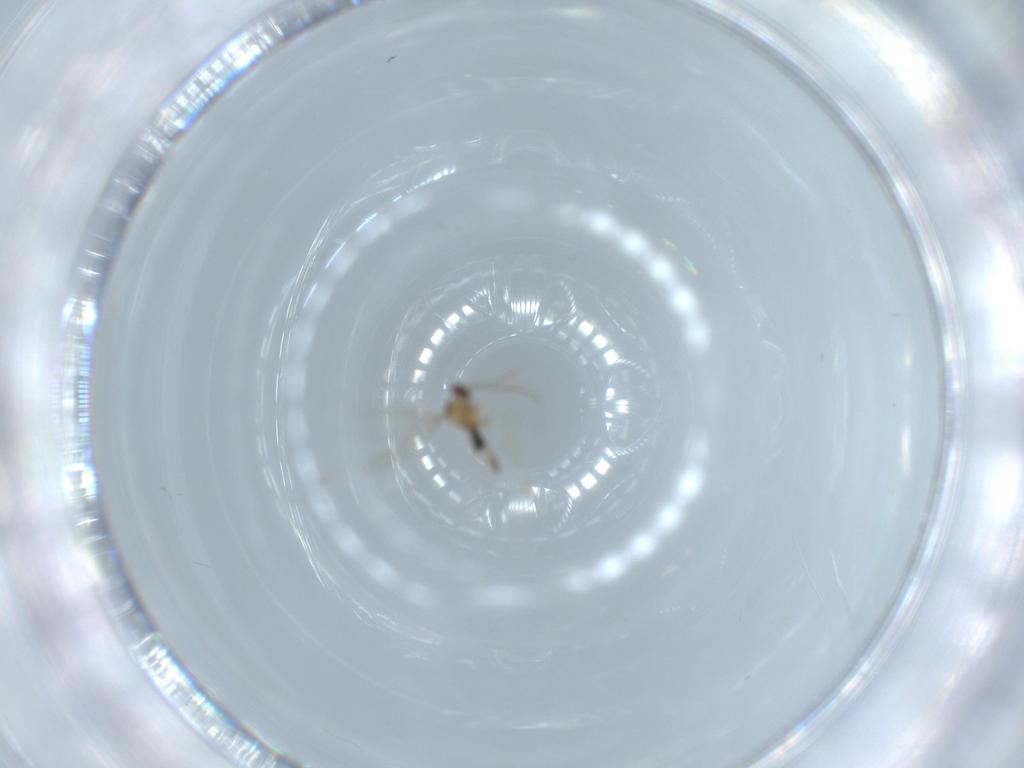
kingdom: Animalia
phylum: Arthropoda
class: Insecta
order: Diptera
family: Cecidomyiidae
